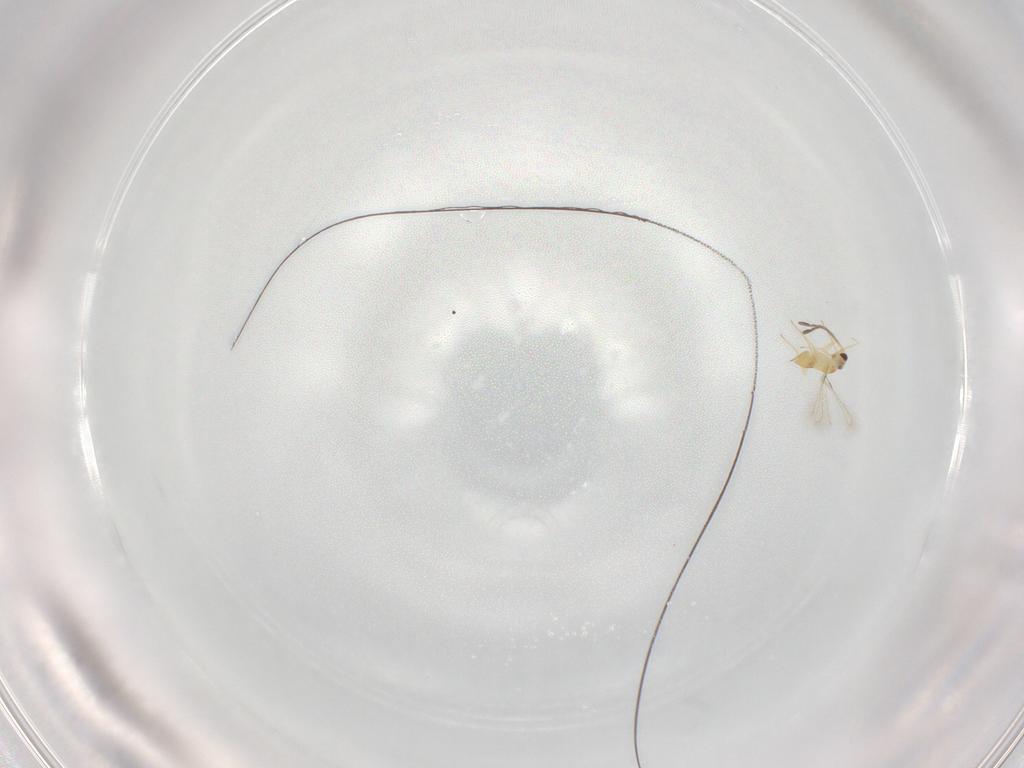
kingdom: Animalia
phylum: Arthropoda
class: Insecta
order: Hymenoptera
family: Mymaridae
